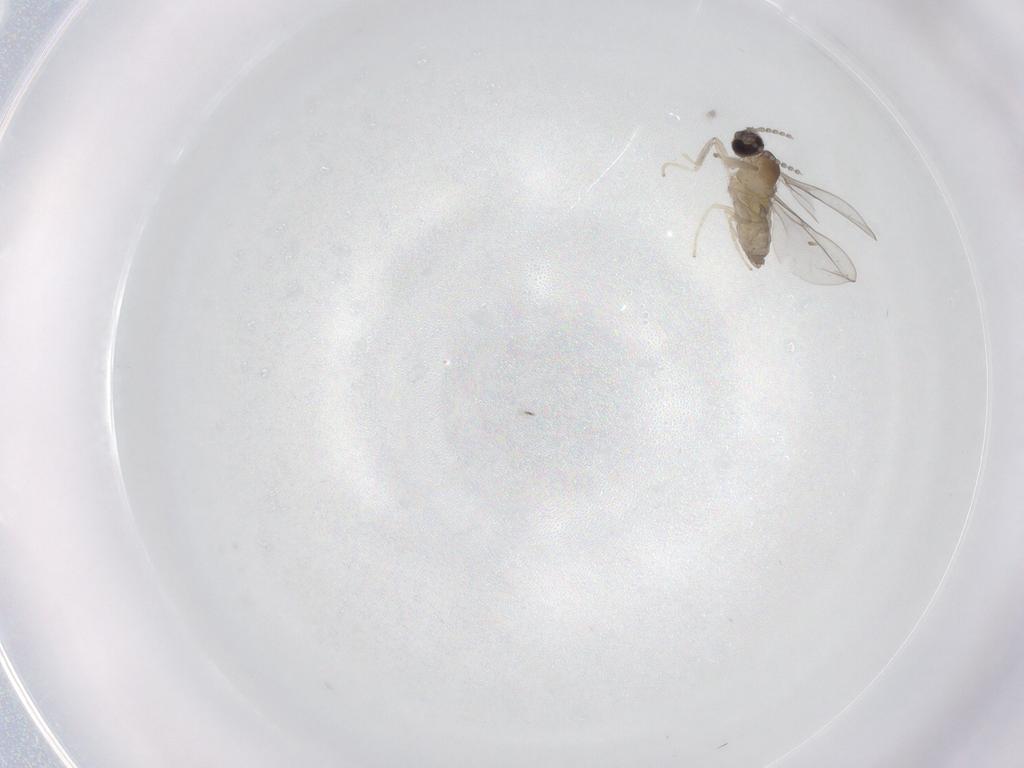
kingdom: Animalia
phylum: Arthropoda
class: Insecta
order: Diptera
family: Cecidomyiidae
